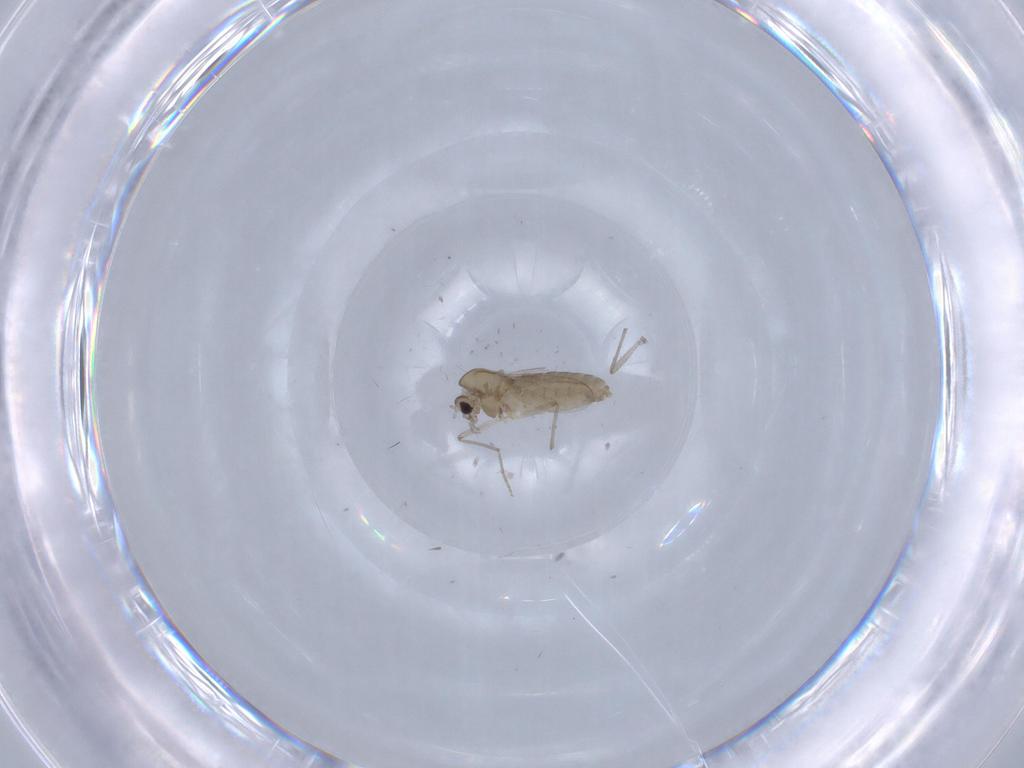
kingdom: Animalia
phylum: Arthropoda
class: Insecta
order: Diptera
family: Chironomidae
